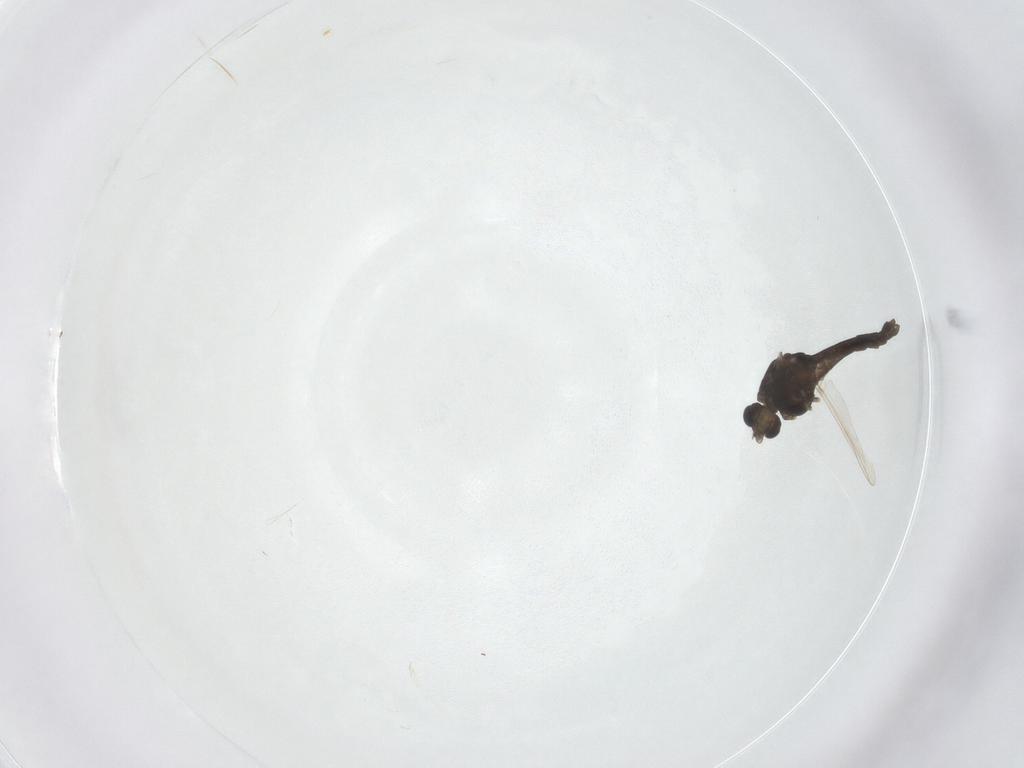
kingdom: Animalia
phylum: Arthropoda
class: Insecta
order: Diptera
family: Chironomidae
